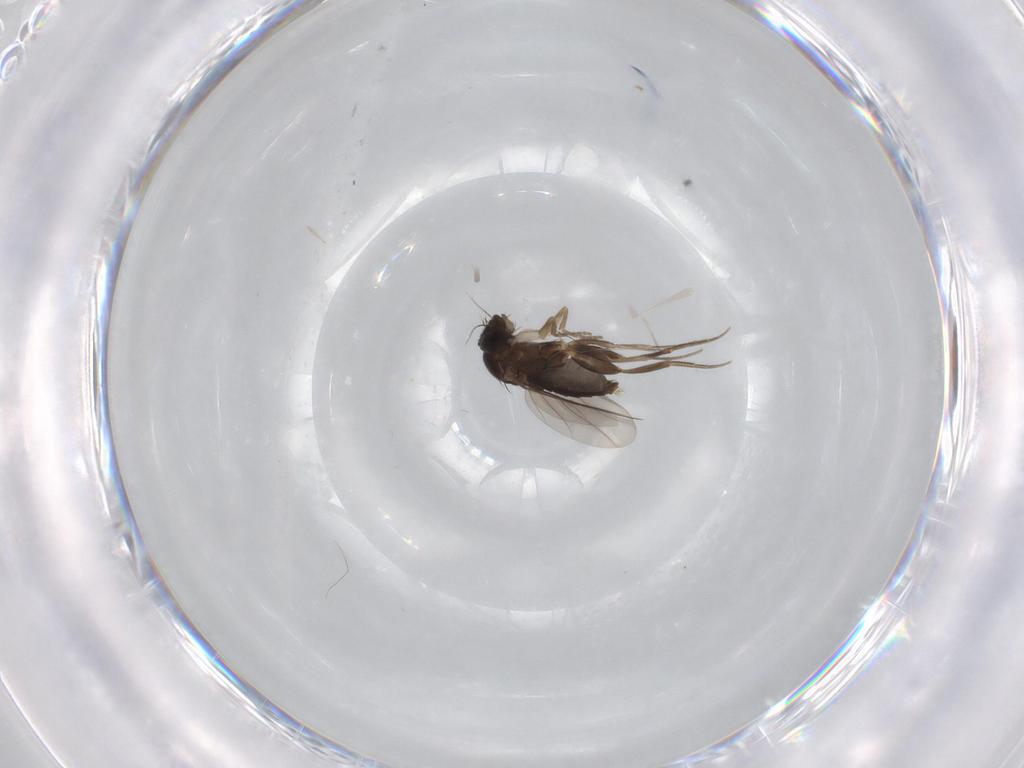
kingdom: Animalia
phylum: Arthropoda
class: Insecta
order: Diptera
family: Phoridae
